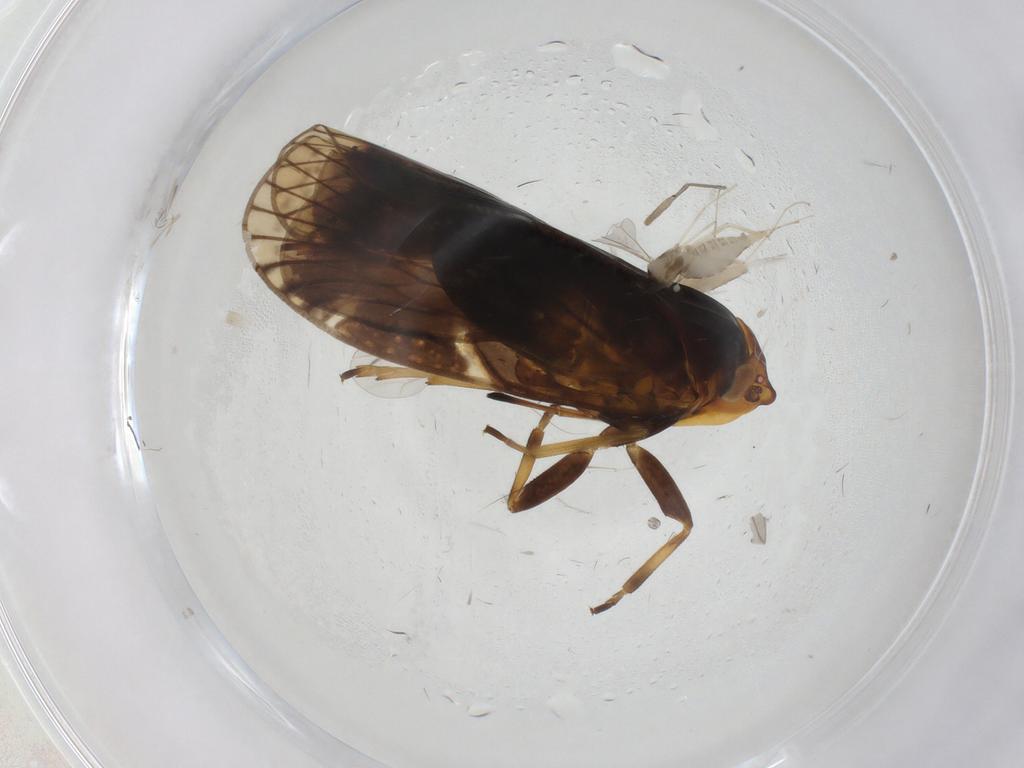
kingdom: Animalia
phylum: Arthropoda
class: Insecta
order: Hemiptera
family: Cixiidae
